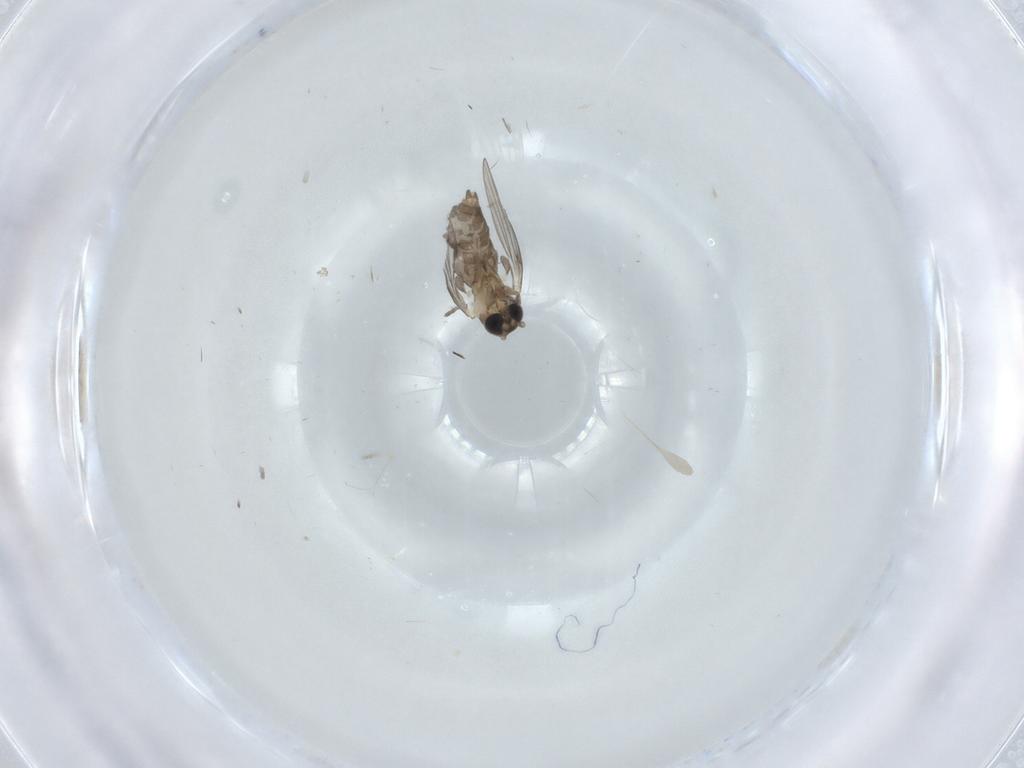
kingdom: Animalia
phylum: Arthropoda
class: Insecta
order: Diptera
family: Psychodidae
